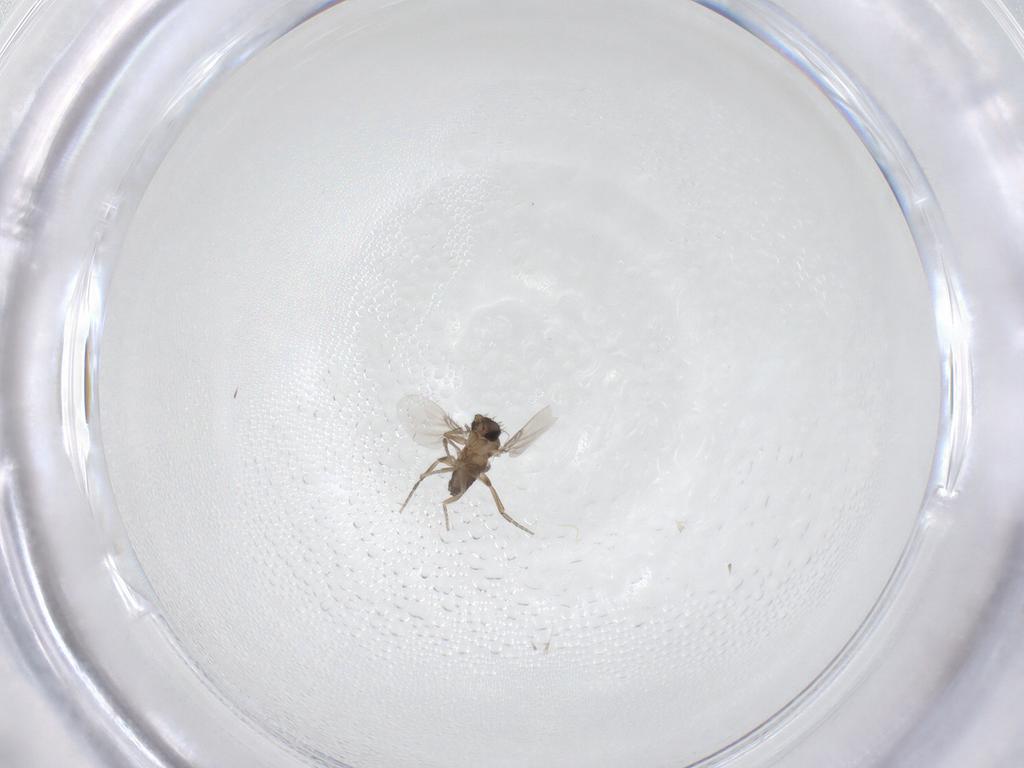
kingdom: Animalia
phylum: Arthropoda
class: Insecta
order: Diptera
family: Phoridae
